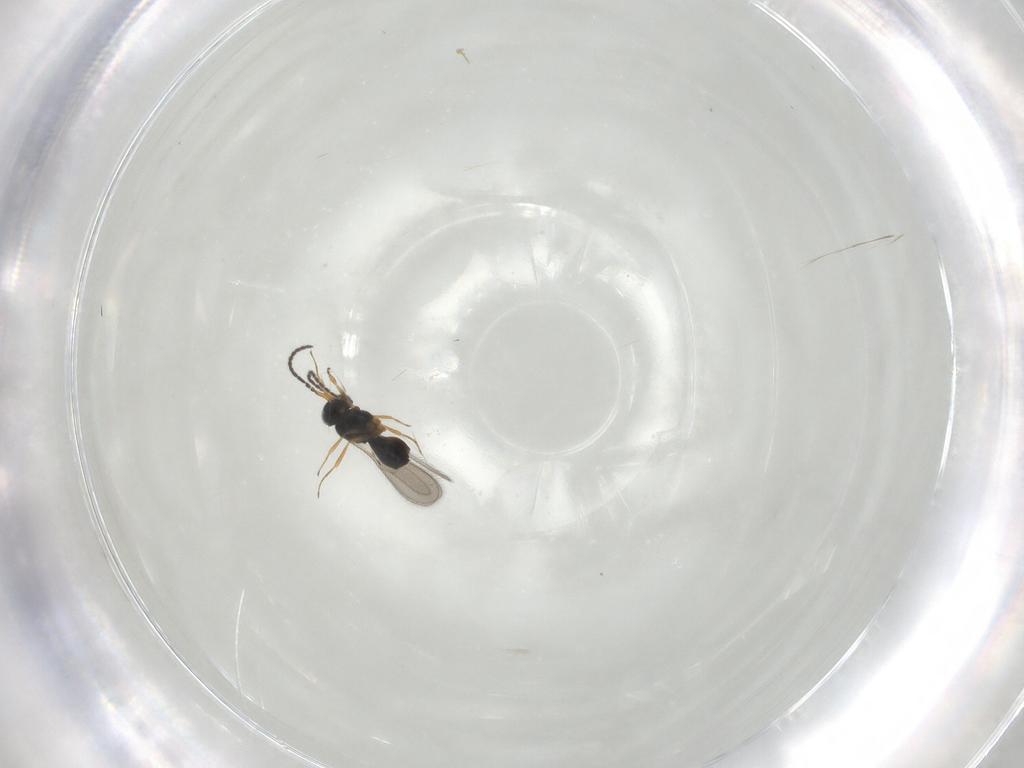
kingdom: Animalia
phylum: Arthropoda
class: Insecta
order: Hymenoptera
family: Scelionidae
